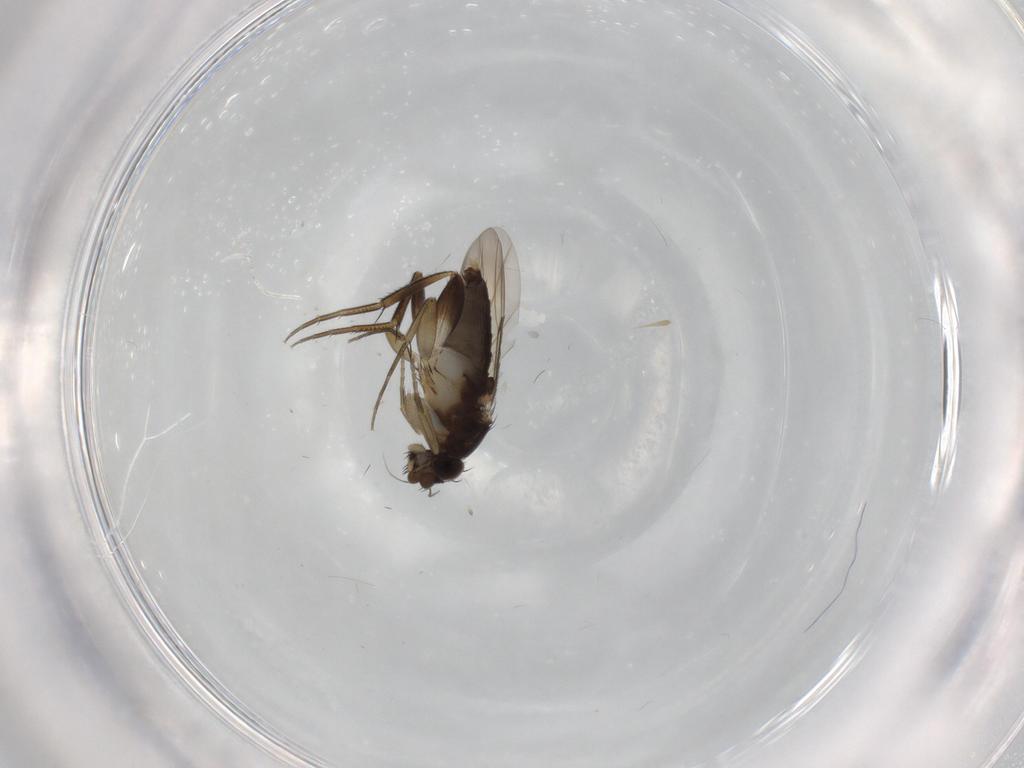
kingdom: Animalia
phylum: Arthropoda
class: Insecta
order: Diptera
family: Phoridae
